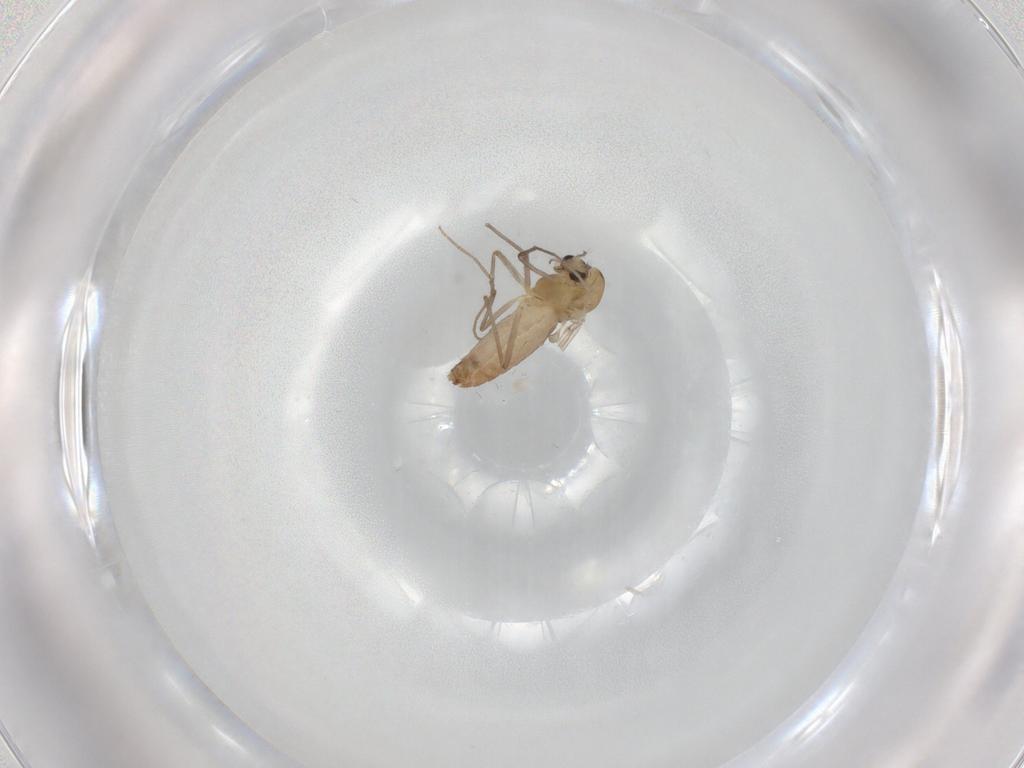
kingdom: Animalia
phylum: Arthropoda
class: Insecta
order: Diptera
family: Chironomidae
